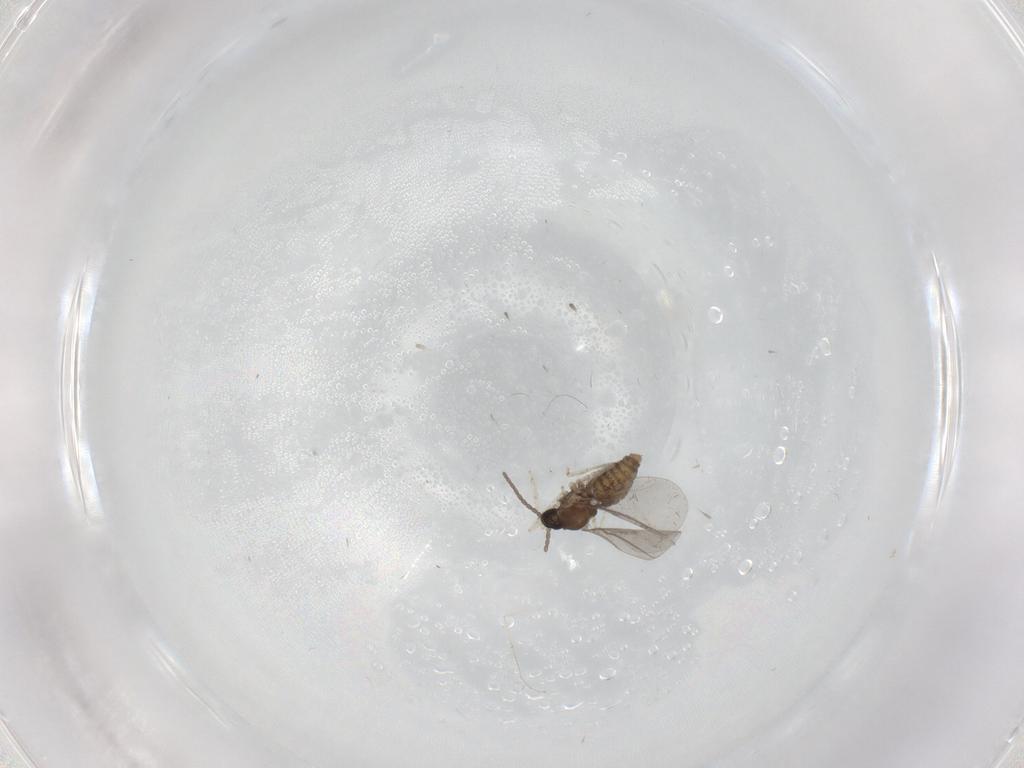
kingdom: Animalia
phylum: Arthropoda
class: Insecta
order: Diptera
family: Cecidomyiidae
